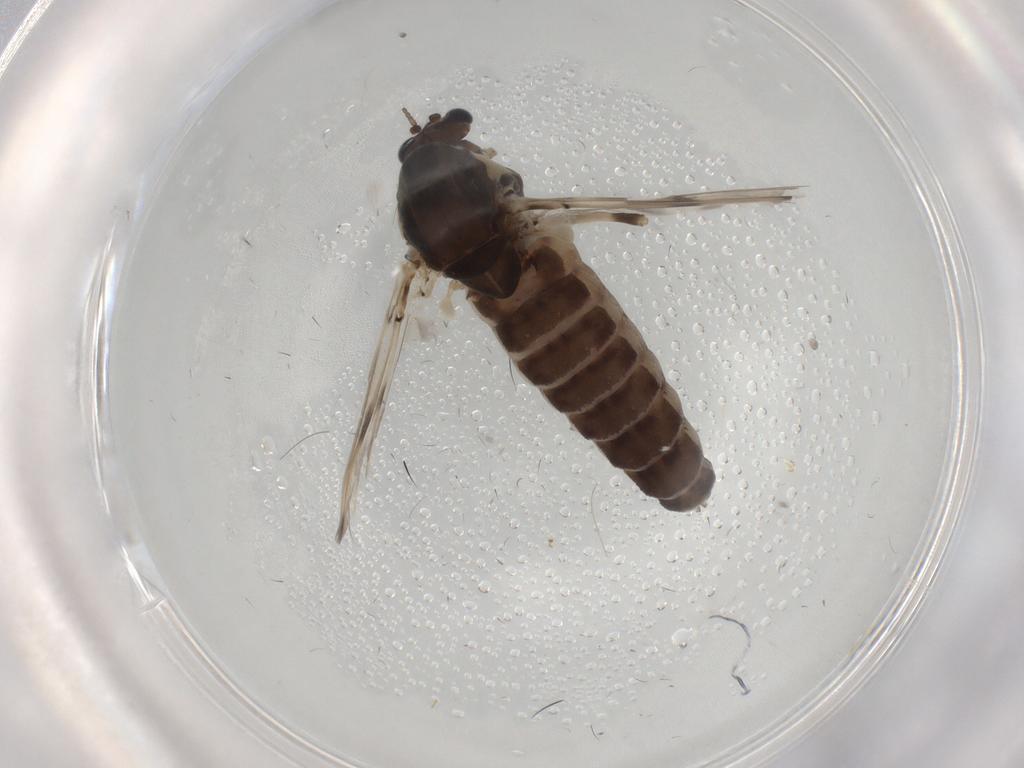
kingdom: Animalia
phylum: Arthropoda
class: Insecta
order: Diptera
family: Chironomidae
